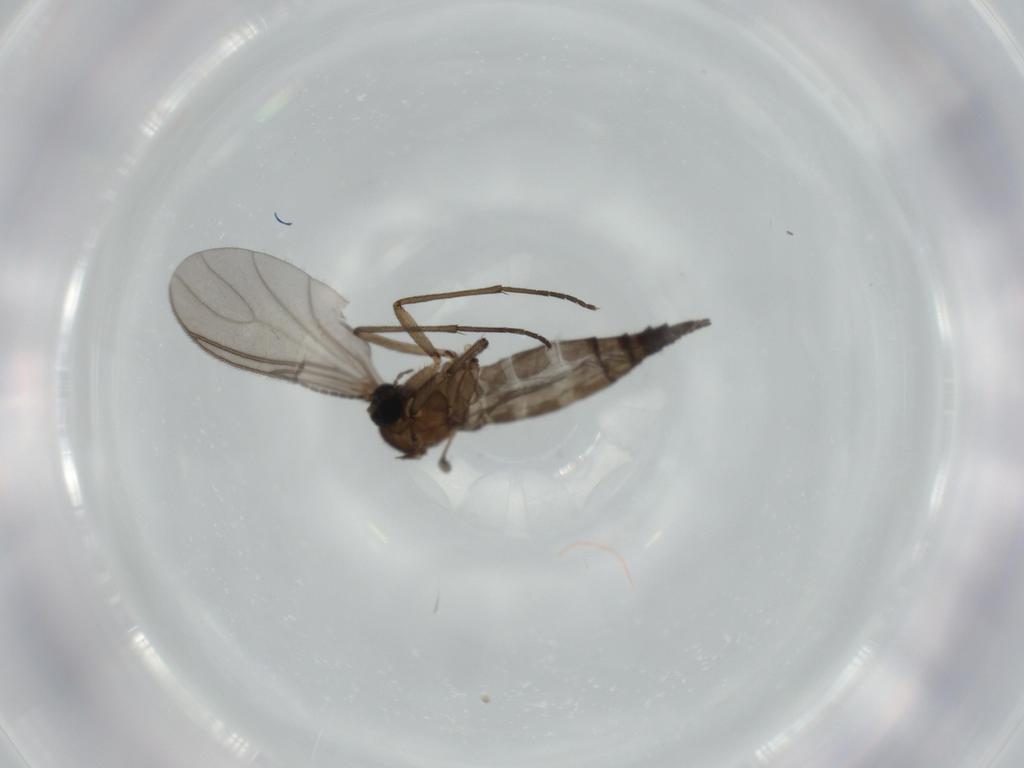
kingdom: Animalia
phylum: Arthropoda
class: Insecta
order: Diptera
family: Sciaridae
